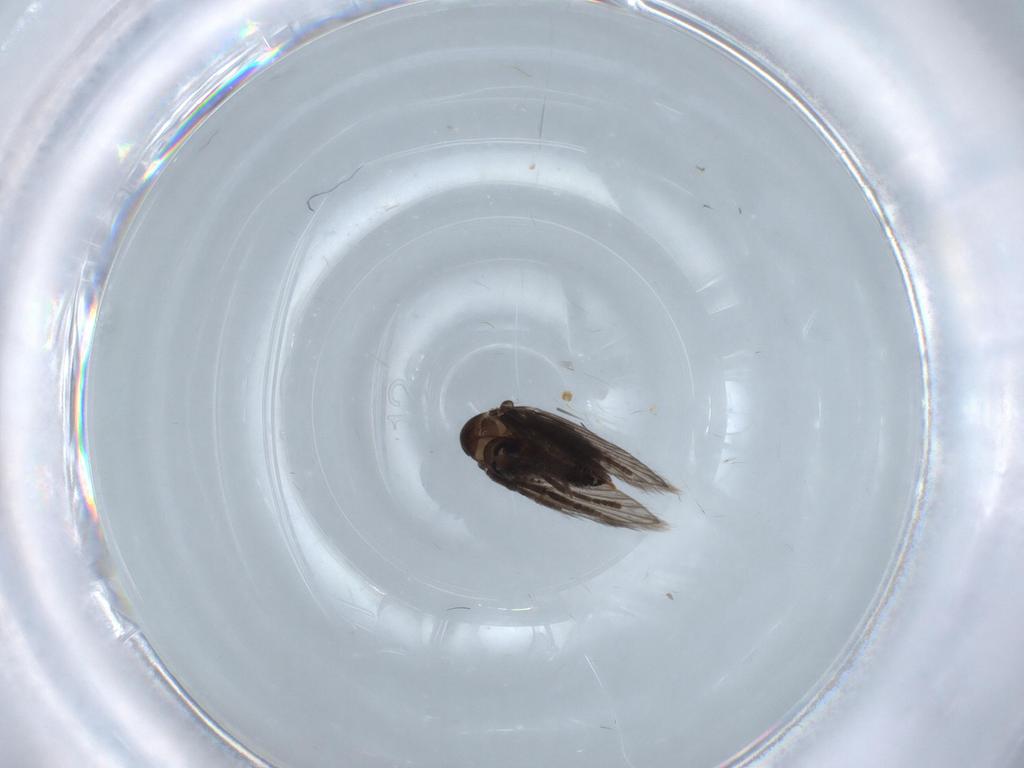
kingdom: Animalia
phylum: Arthropoda
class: Insecta
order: Diptera
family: Psychodidae
